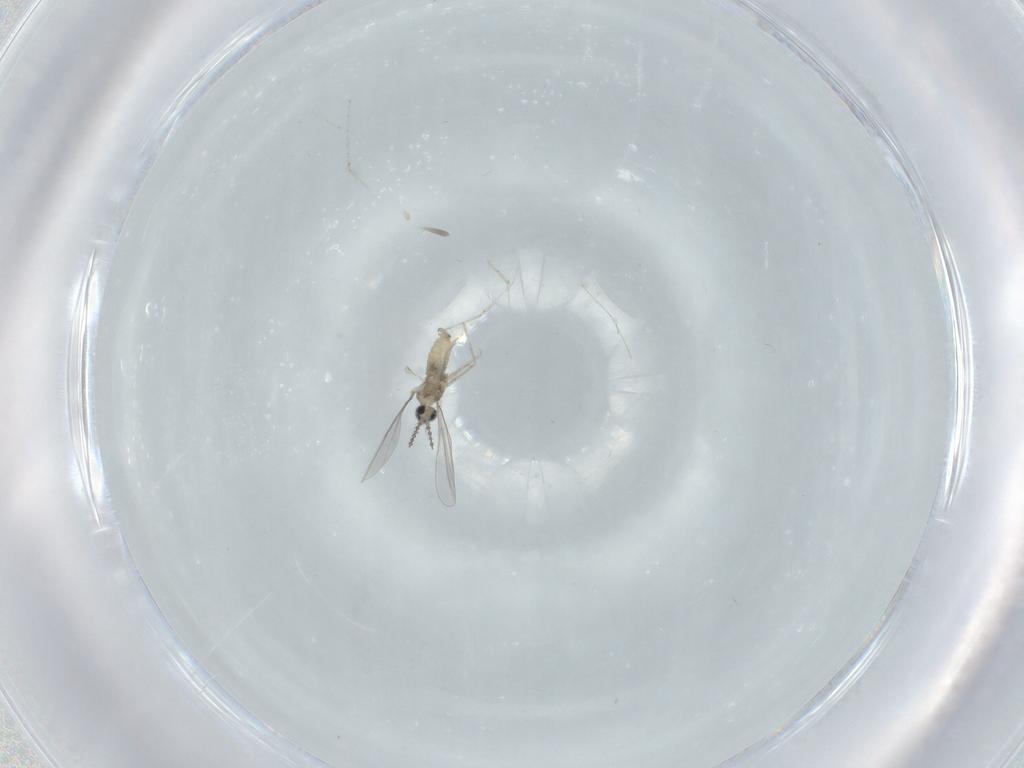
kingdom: Animalia
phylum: Arthropoda
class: Insecta
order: Diptera
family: Cecidomyiidae
